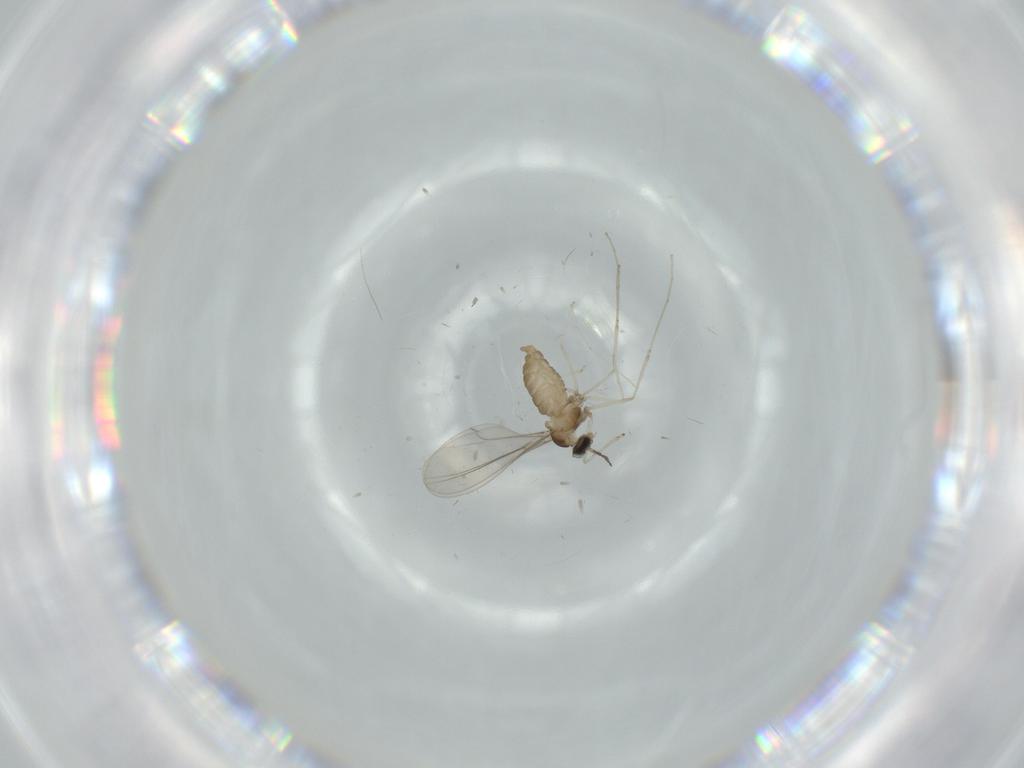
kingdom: Animalia
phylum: Arthropoda
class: Insecta
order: Diptera
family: Cecidomyiidae
